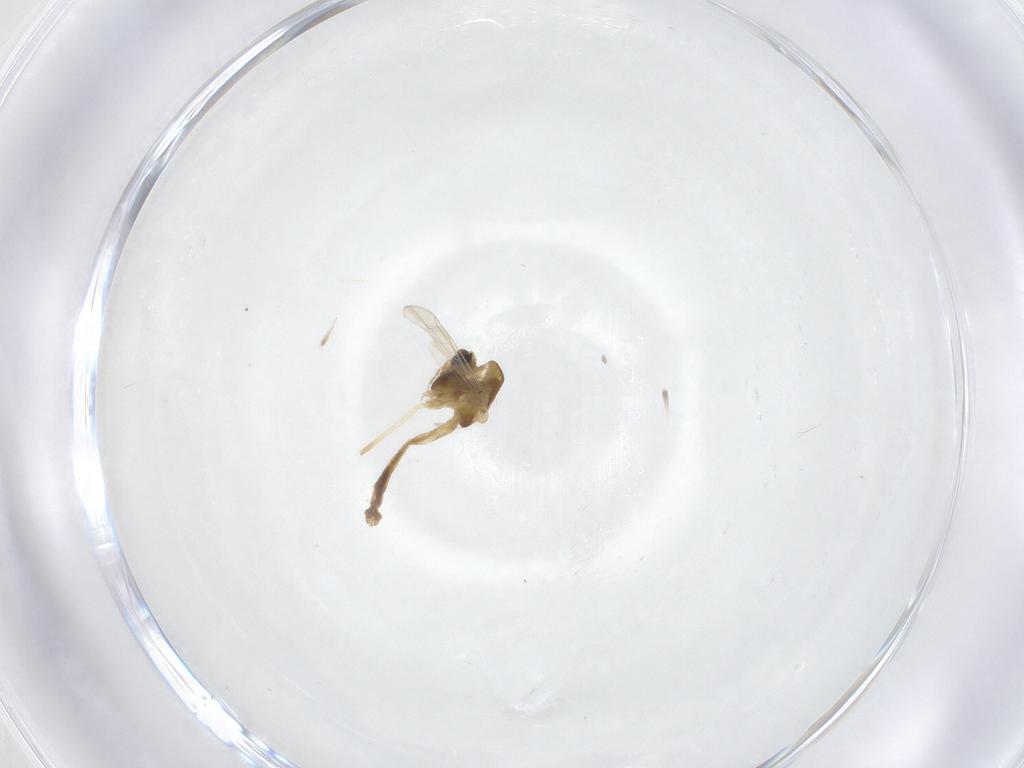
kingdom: Animalia
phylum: Arthropoda
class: Insecta
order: Diptera
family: Chironomidae
